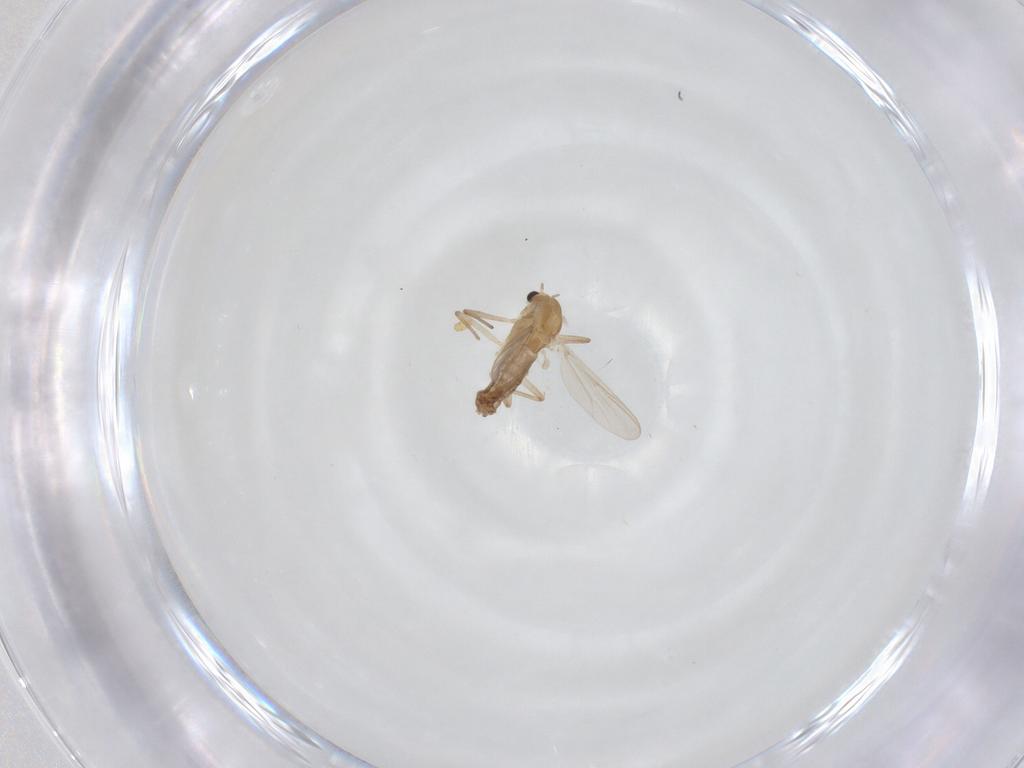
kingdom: Animalia
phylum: Arthropoda
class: Insecta
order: Diptera
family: Chironomidae
